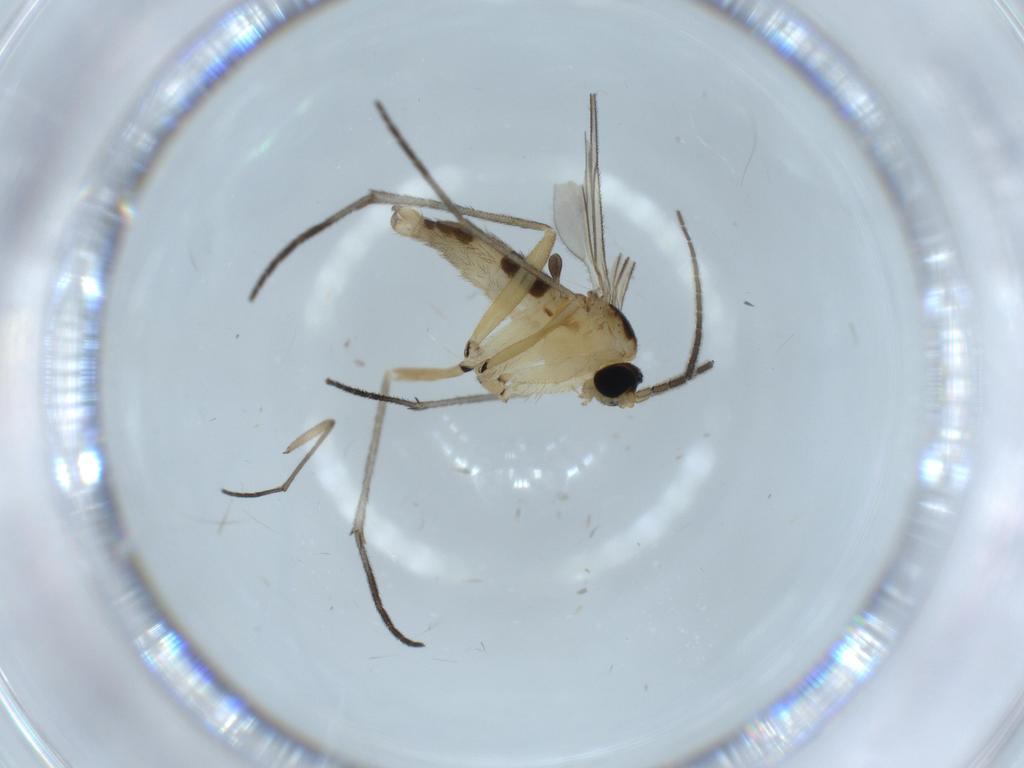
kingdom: Animalia
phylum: Arthropoda
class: Insecta
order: Diptera
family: Sciaridae
